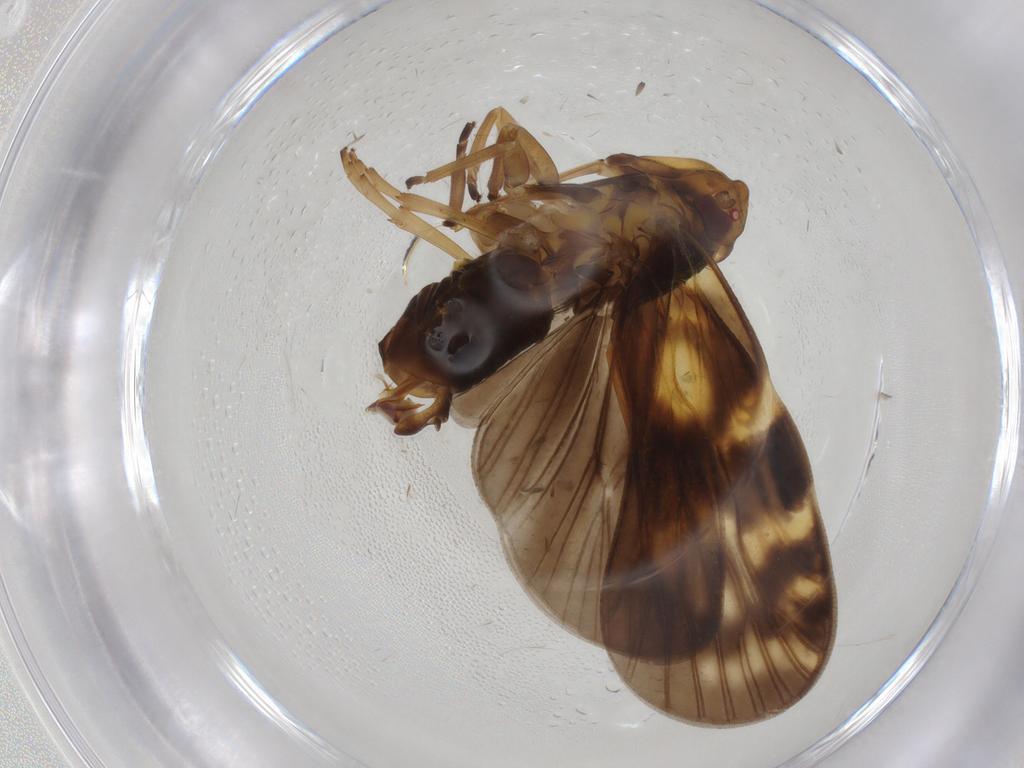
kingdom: Animalia
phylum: Arthropoda
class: Insecta
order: Hemiptera
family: Cixiidae
